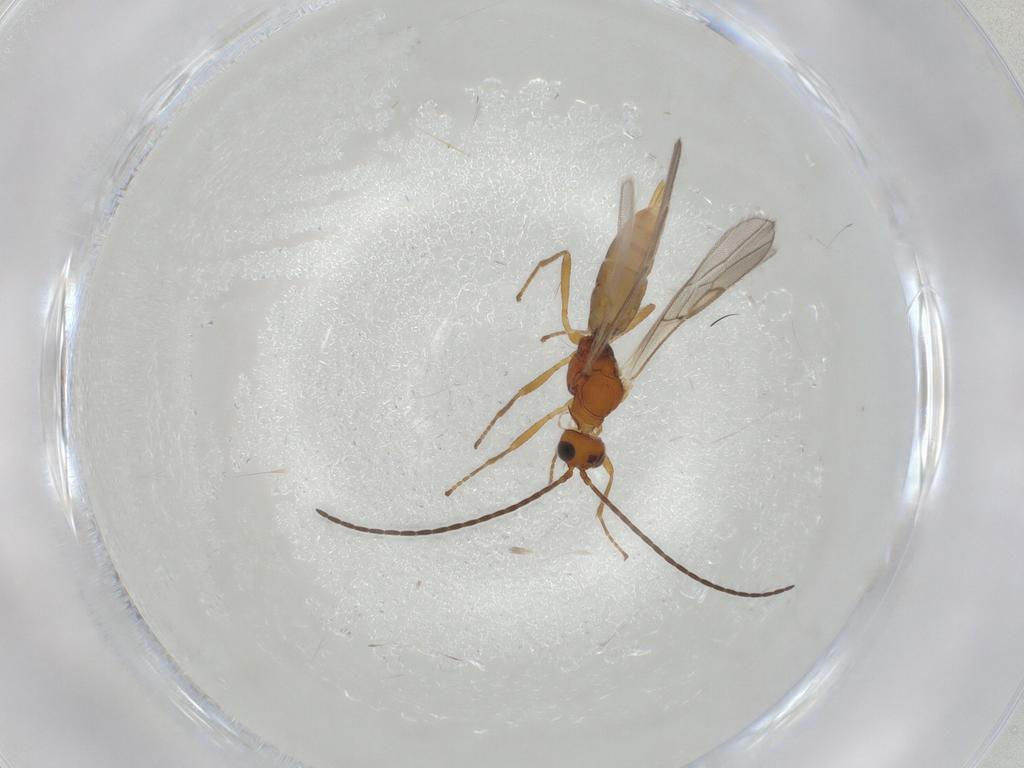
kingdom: Animalia
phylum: Arthropoda
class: Insecta
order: Hymenoptera
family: Braconidae
